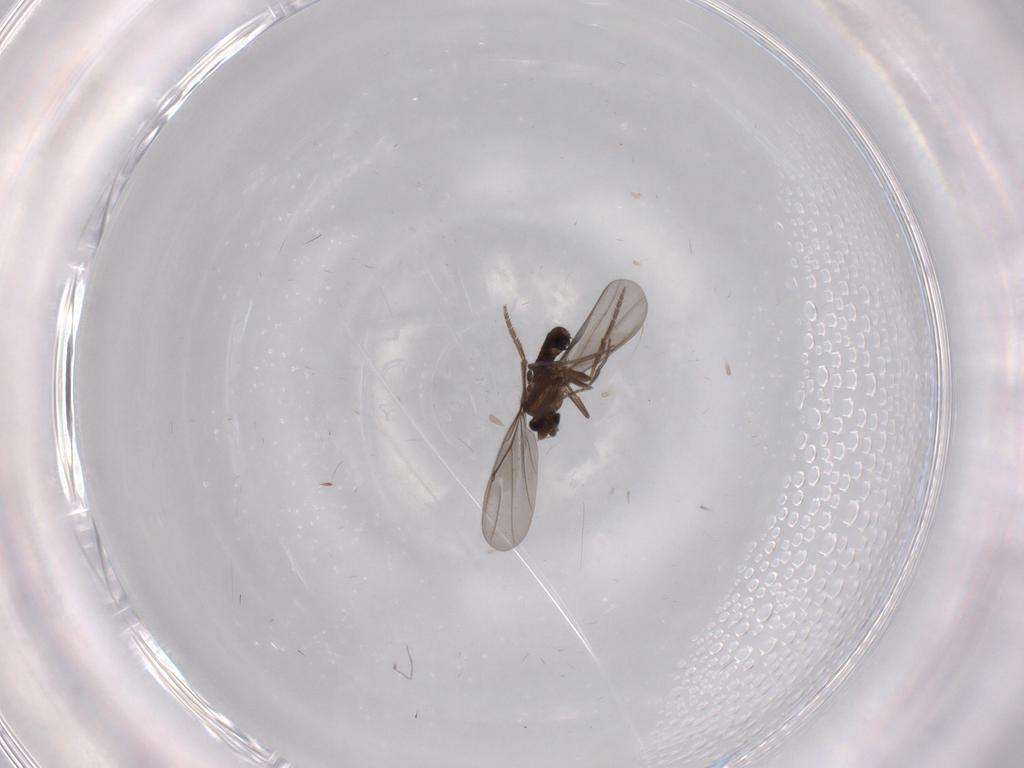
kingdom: Animalia
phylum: Arthropoda
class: Insecta
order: Diptera
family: Phoridae
